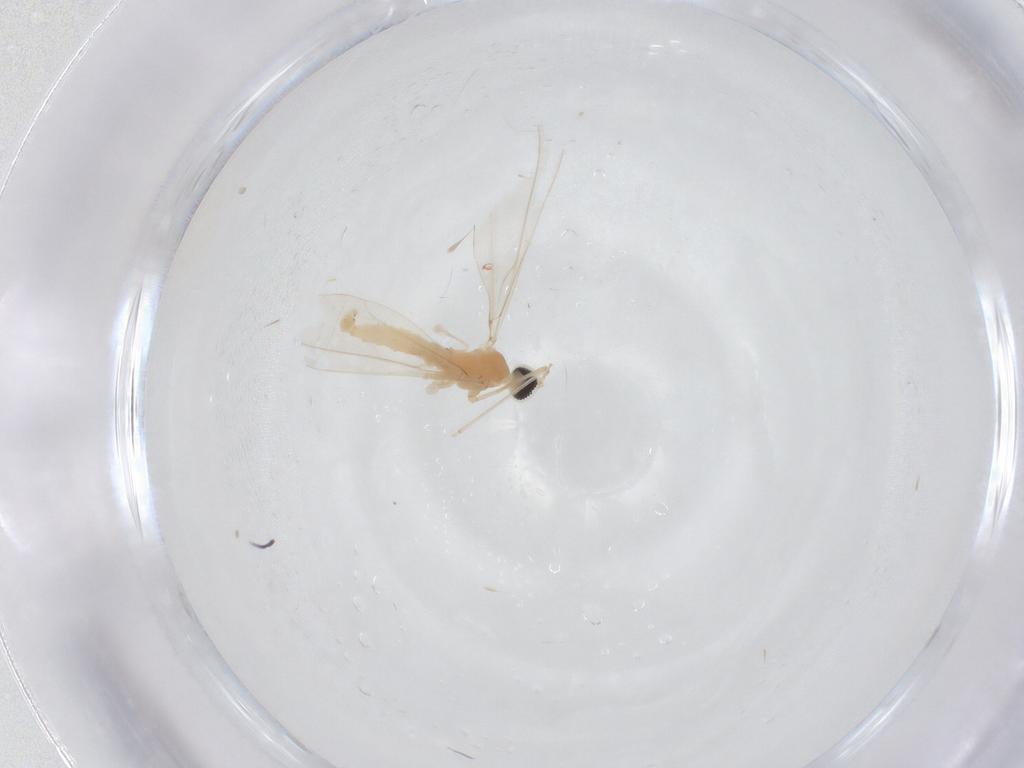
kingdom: Animalia
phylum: Arthropoda
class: Insecta
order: Diptera
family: Cecidomyiidae
